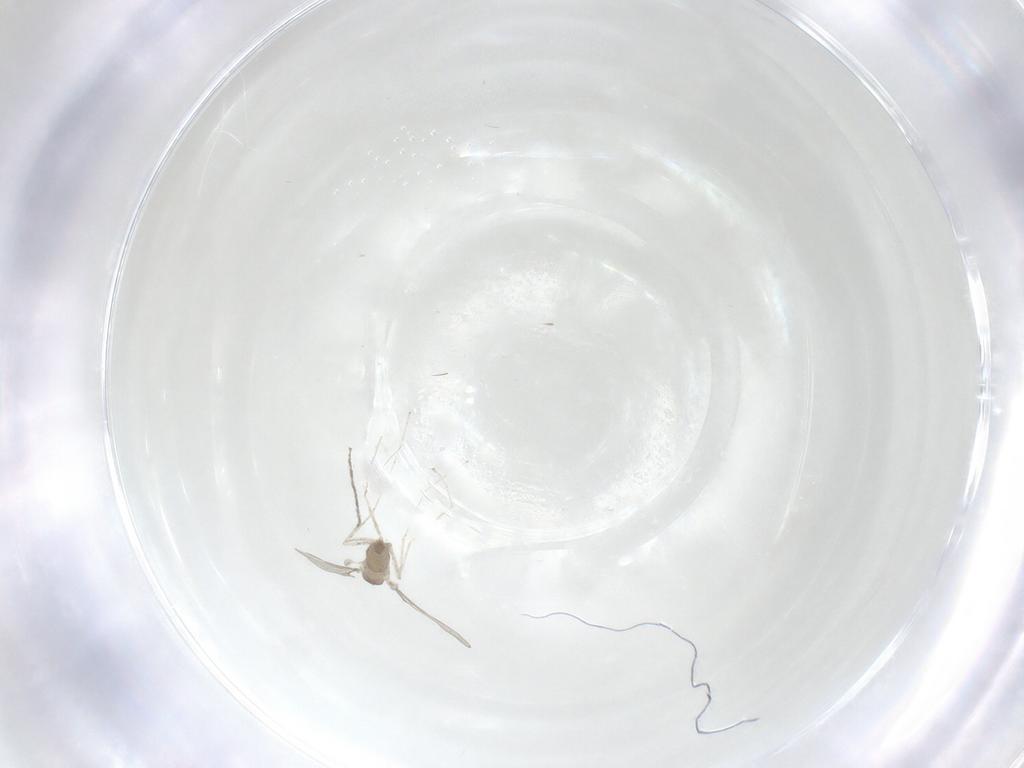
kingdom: Animalia
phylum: Arthropoda
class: Insecta
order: Diptera
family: Cecidomyiidae
